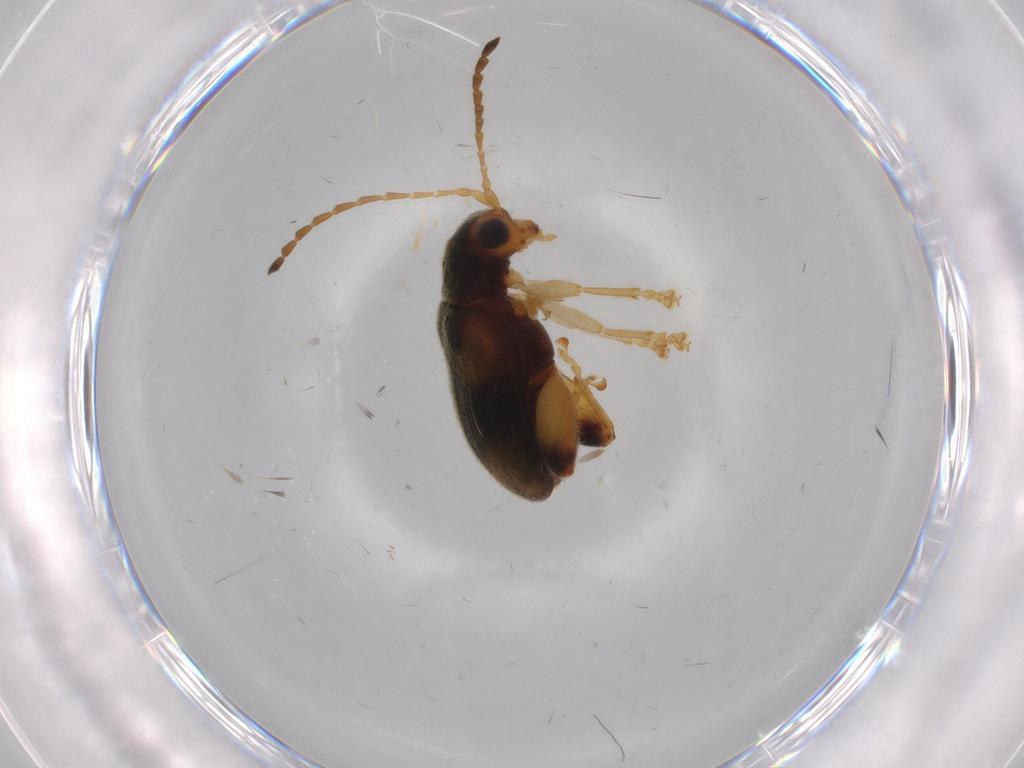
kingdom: Animalia
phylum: Arthropoda
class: Insecta
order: Coleoptera
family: Chrysomelidae
